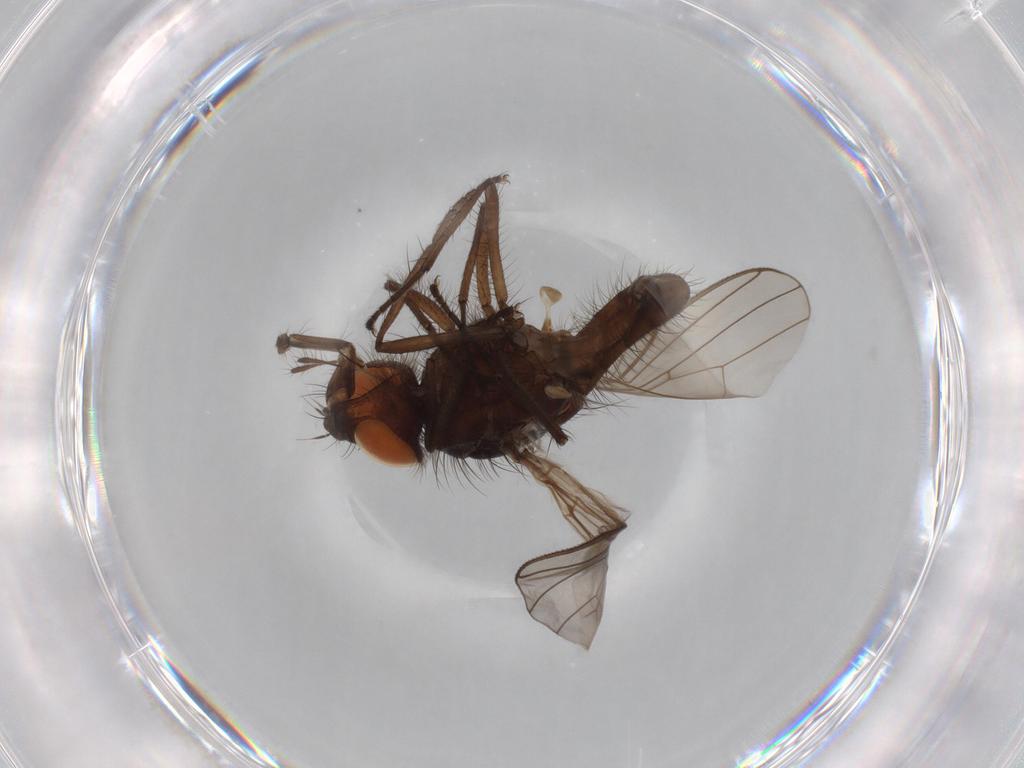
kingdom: Animalia
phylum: Arthropoda
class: Insecta
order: Diptera
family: Anthomyiidae
